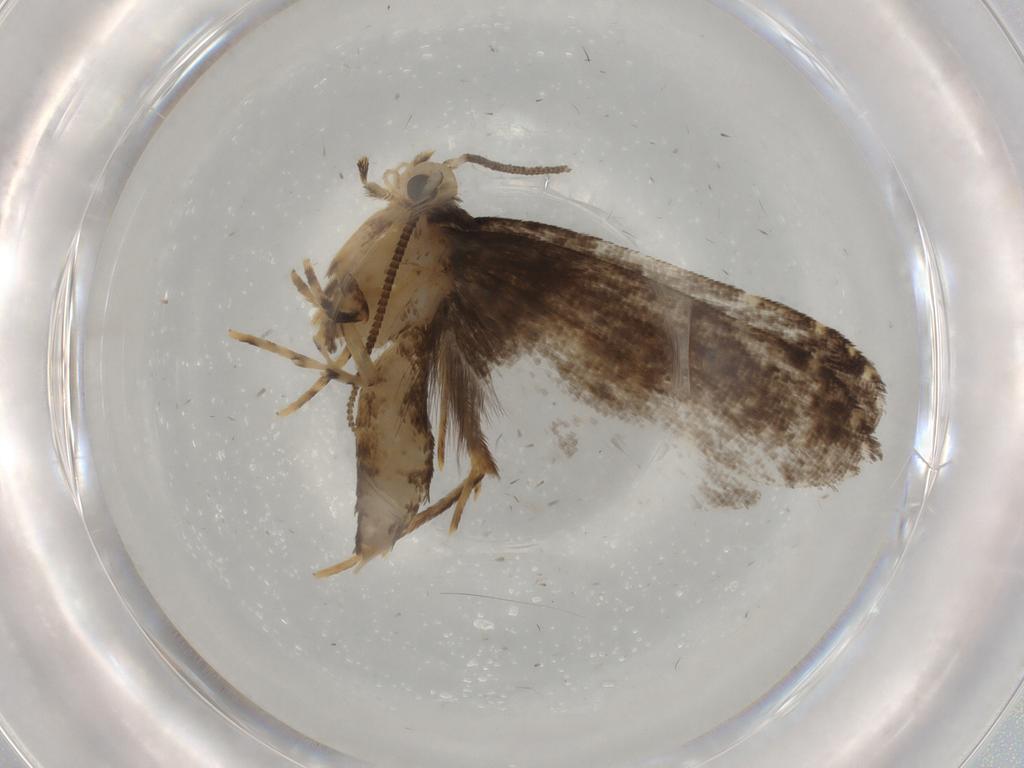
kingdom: Animalia
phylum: Arthropoda
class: Insecta
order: Lepidoptera
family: Tineidae
